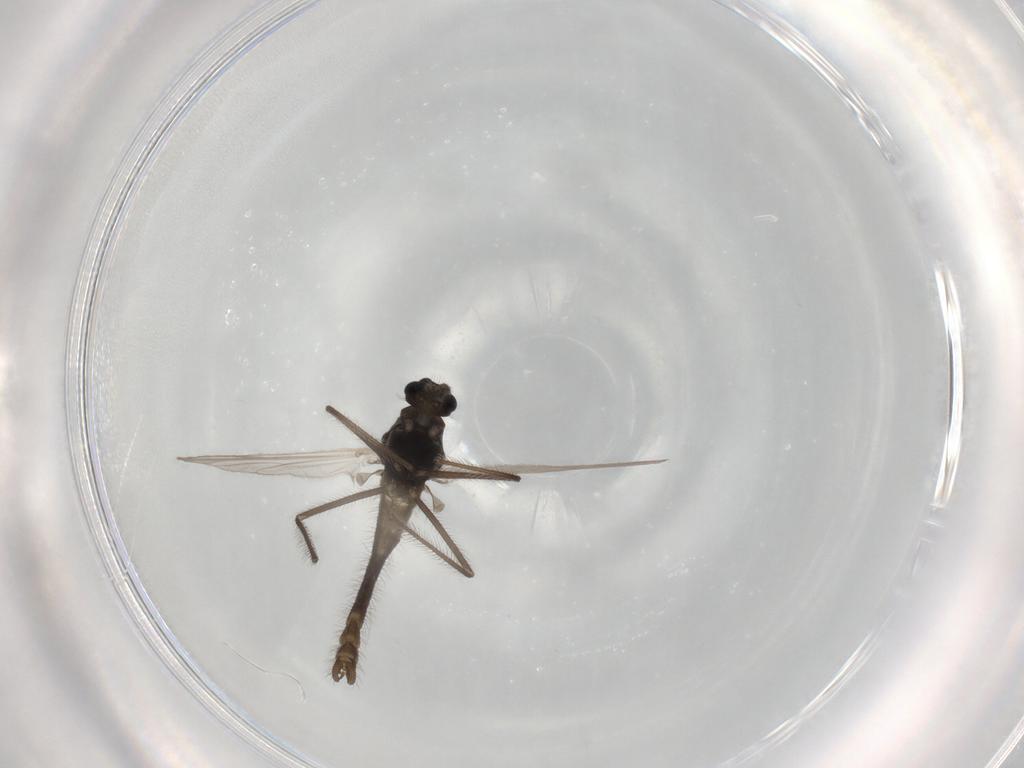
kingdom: Animalia
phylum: Arthropoda
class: Insecta
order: Diptera
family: Chironomidae
